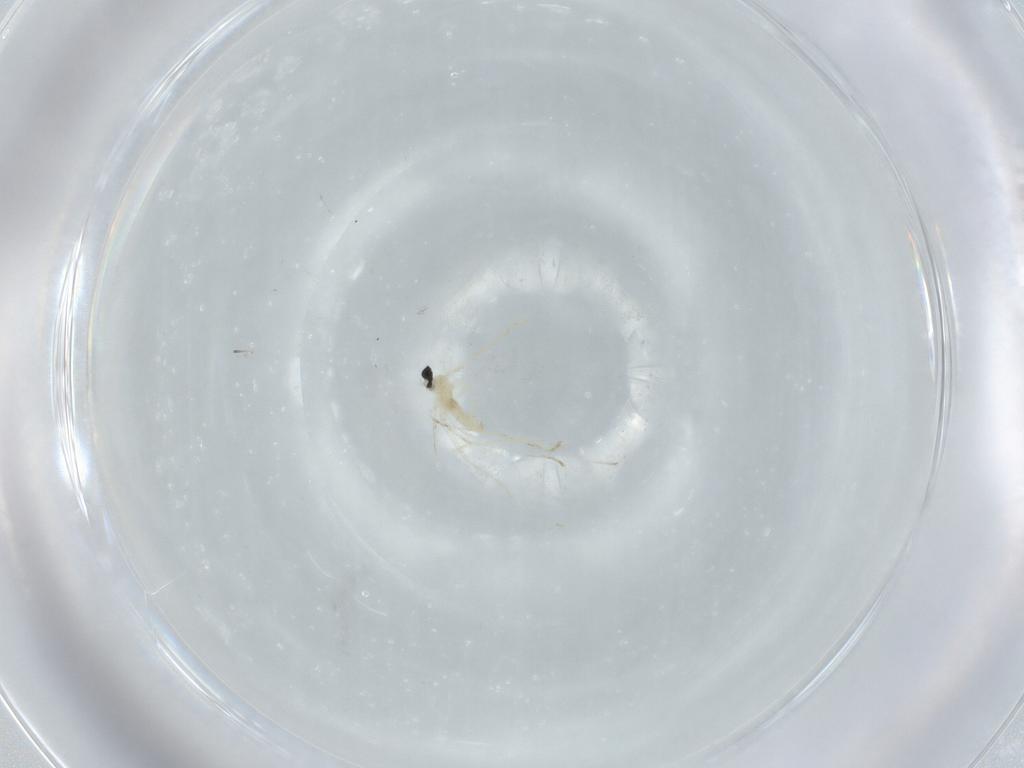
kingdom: Animalia
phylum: Arthropoda
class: Insecta
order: Diptera
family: Cecidomyiidae
